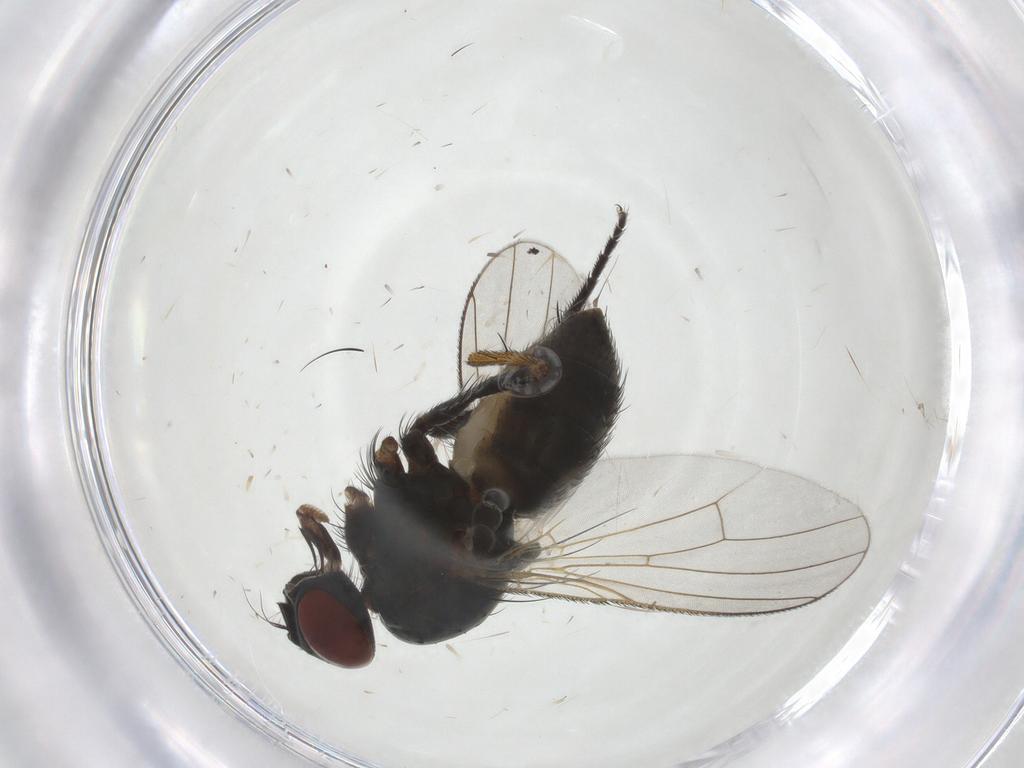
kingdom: Animalia
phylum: Arthropoda
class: Insecta
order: Diptera
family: Muscidae
